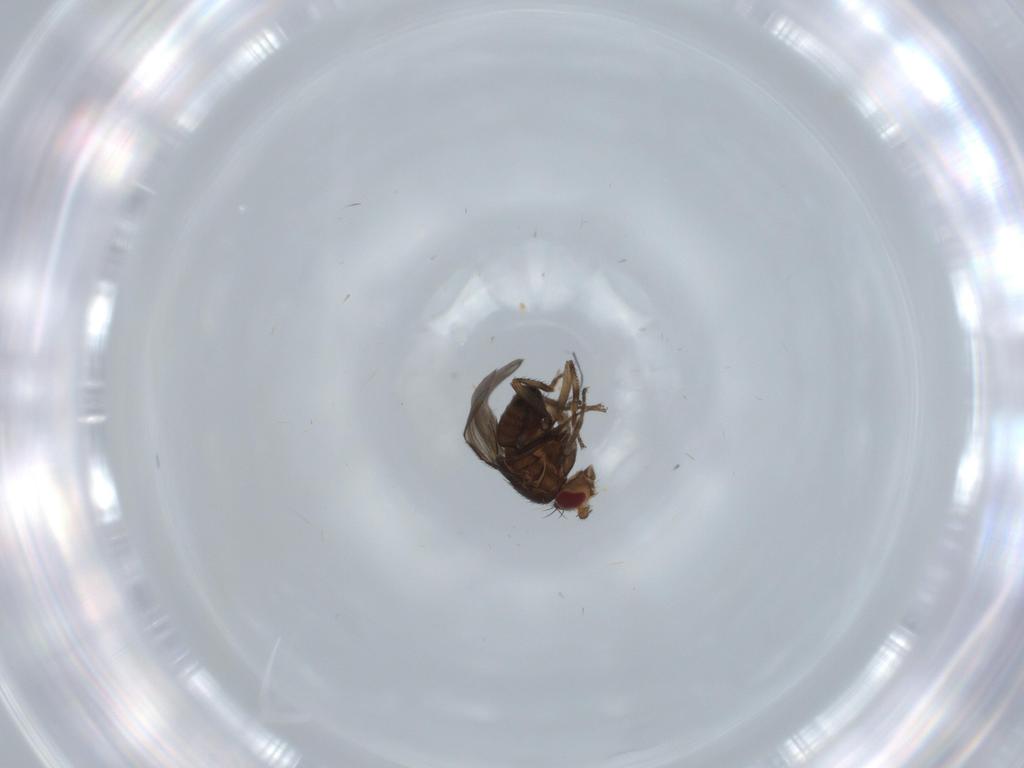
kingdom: Animalia
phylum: Arthropoda
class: Insecta
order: Diptera
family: Ceratopogonidae
